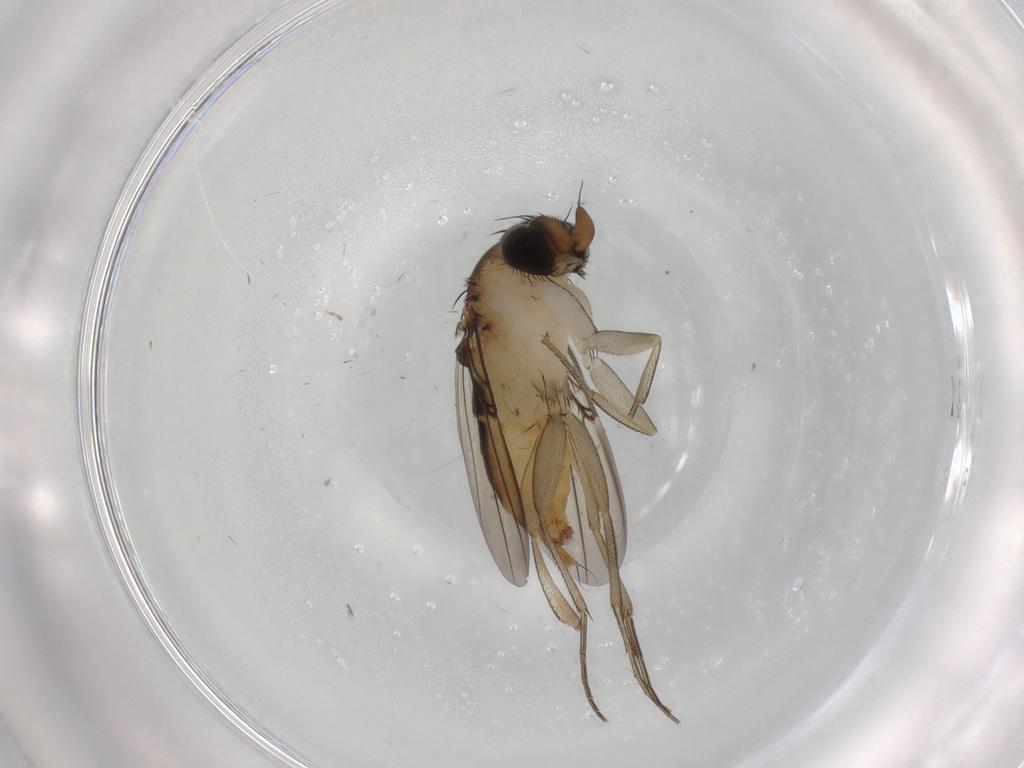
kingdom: Animalia
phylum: Arthropoda
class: Insecta
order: Diptera
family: Phoridae
